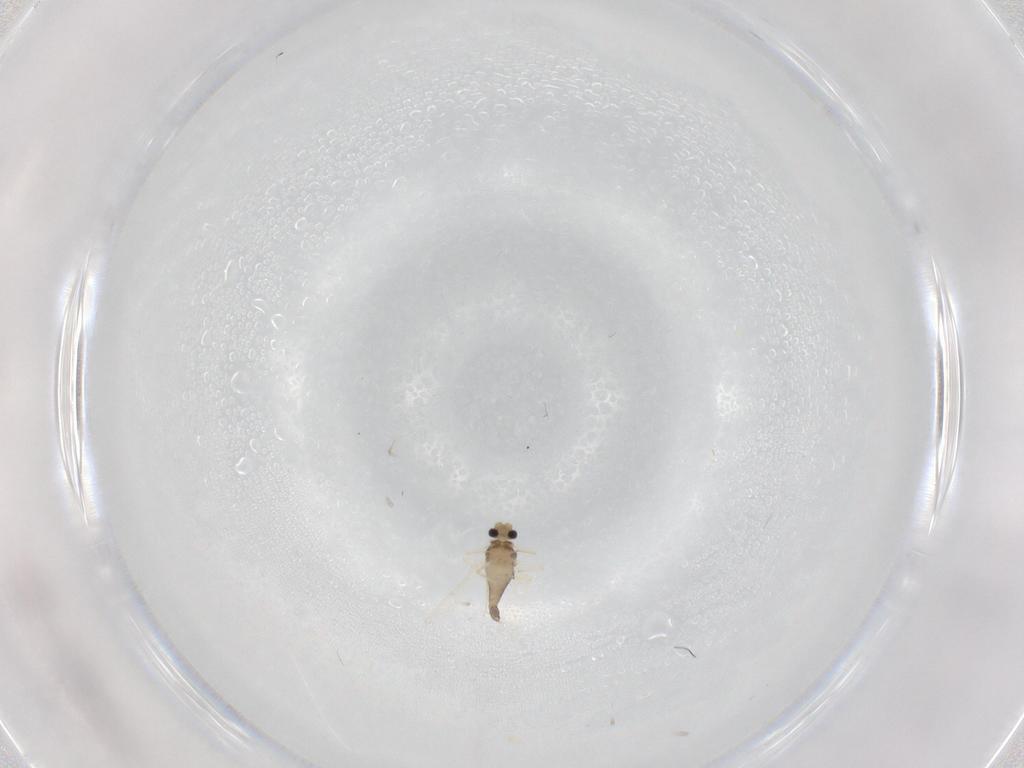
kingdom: Animalia
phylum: Arthropoda
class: Insecta
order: Diptera
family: Chironomidae
